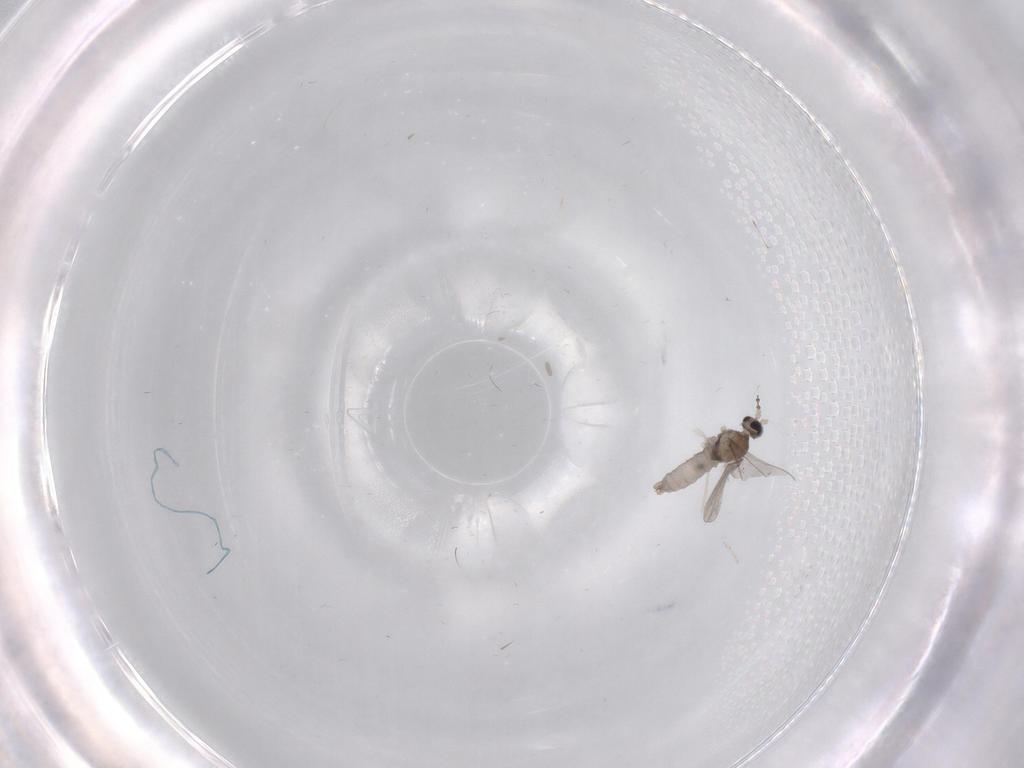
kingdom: Animalia
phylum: Arthropoda
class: Insecta
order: Diptera
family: Cecidomyiidae
